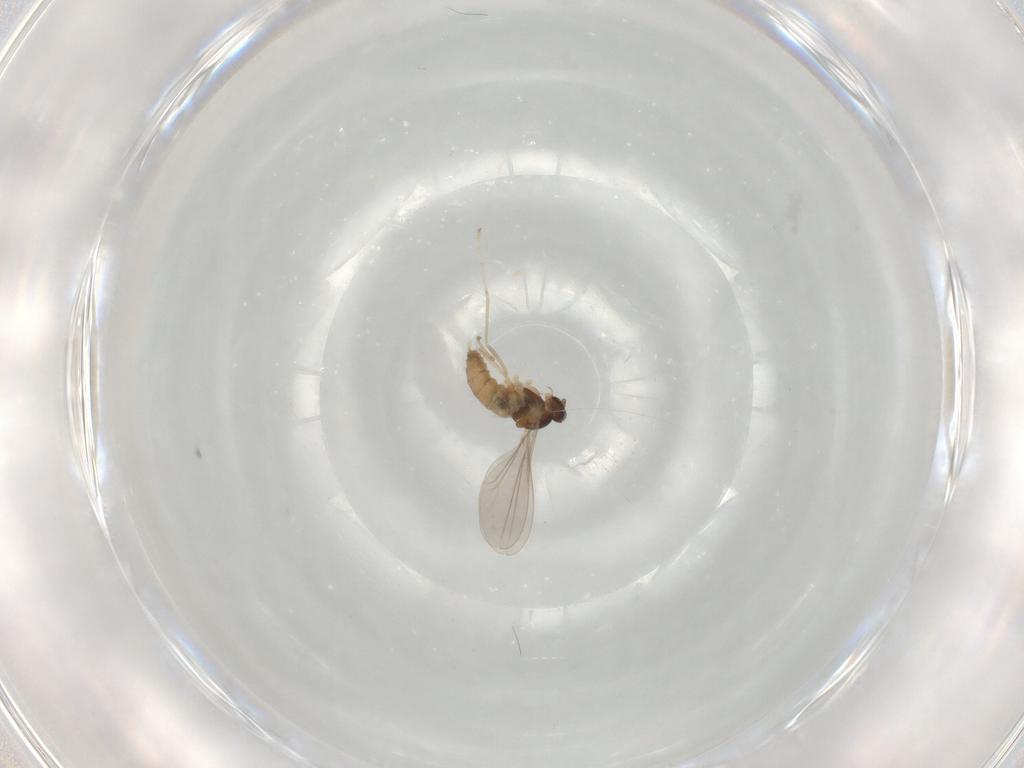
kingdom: Animalia
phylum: Arthropoda
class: Insecta
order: Diptera
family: Cecidomyiidae
